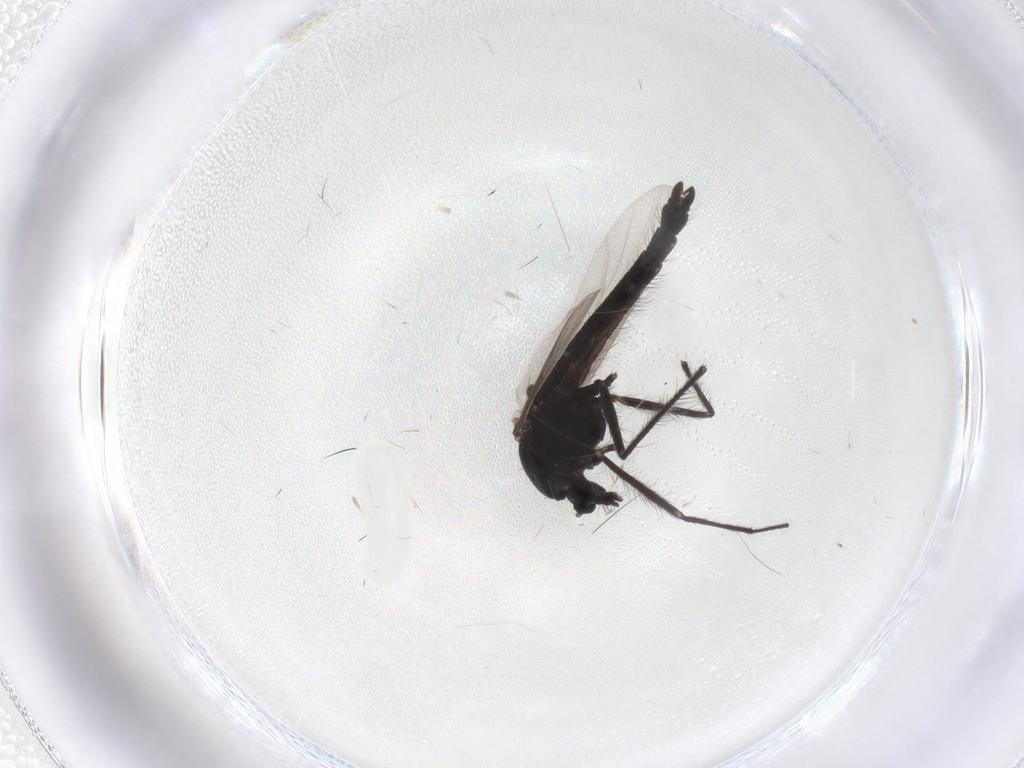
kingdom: Animalia
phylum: Arthropoda
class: Insecta
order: Diptera
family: Chironomidae
